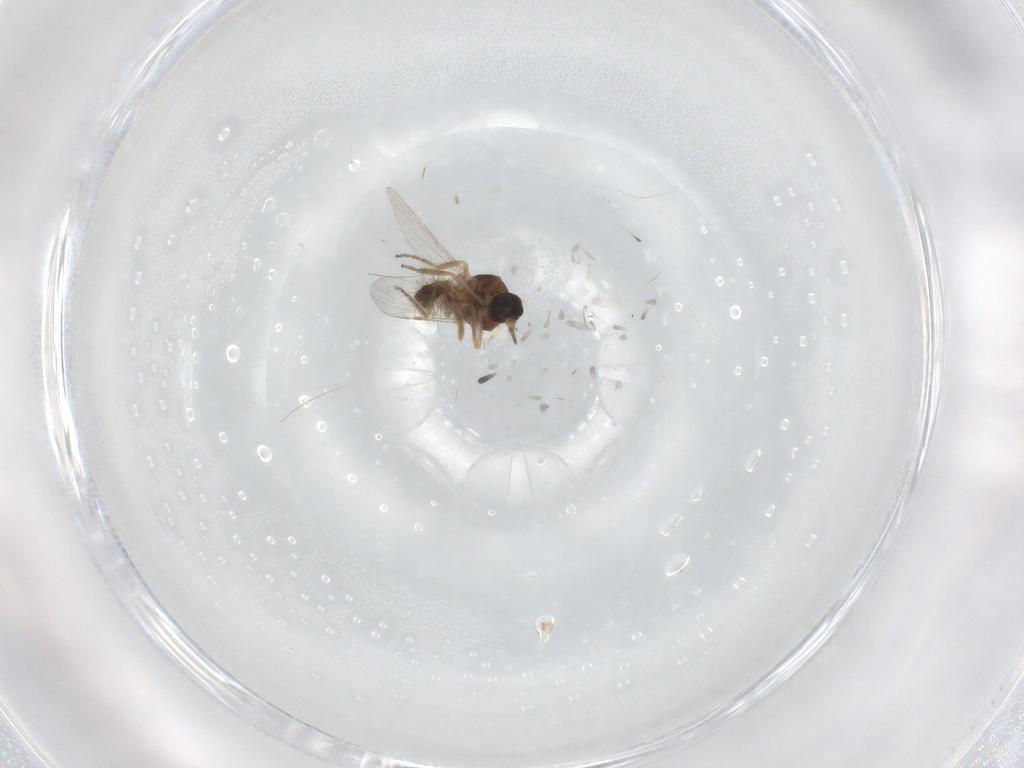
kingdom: Animalia
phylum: Arthropoda
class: Insecta
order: Diptera
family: Ceratopogonidae
